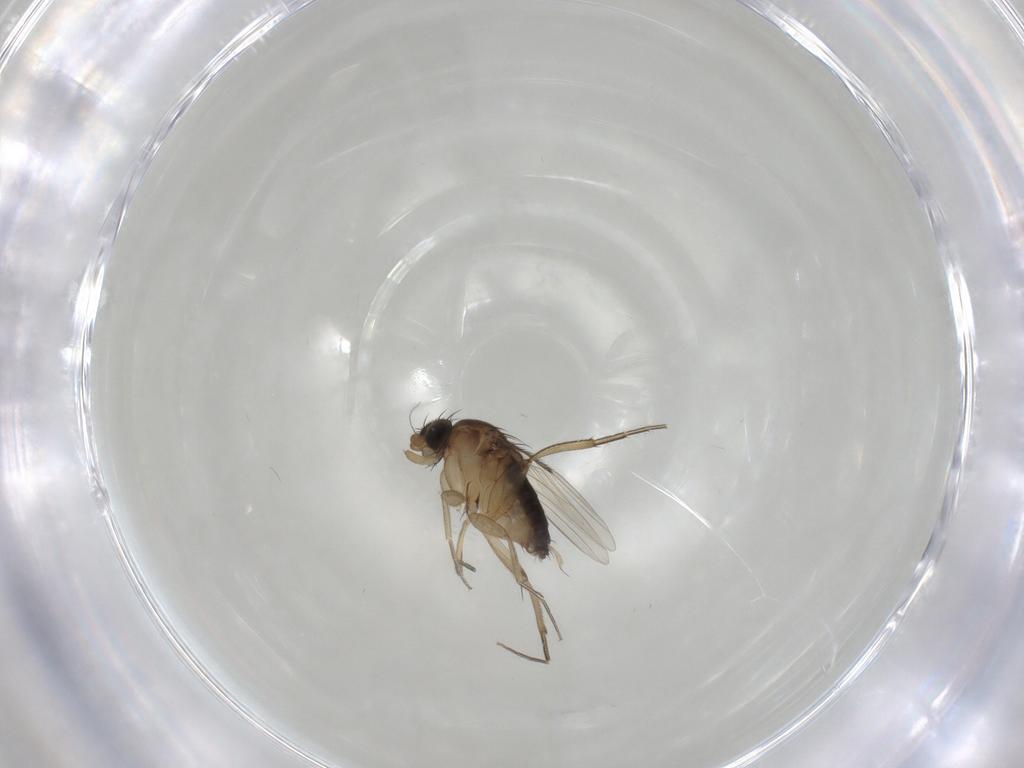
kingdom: Animalia
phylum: Arthropoda
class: Insecta
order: Diptera
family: Phoridae
